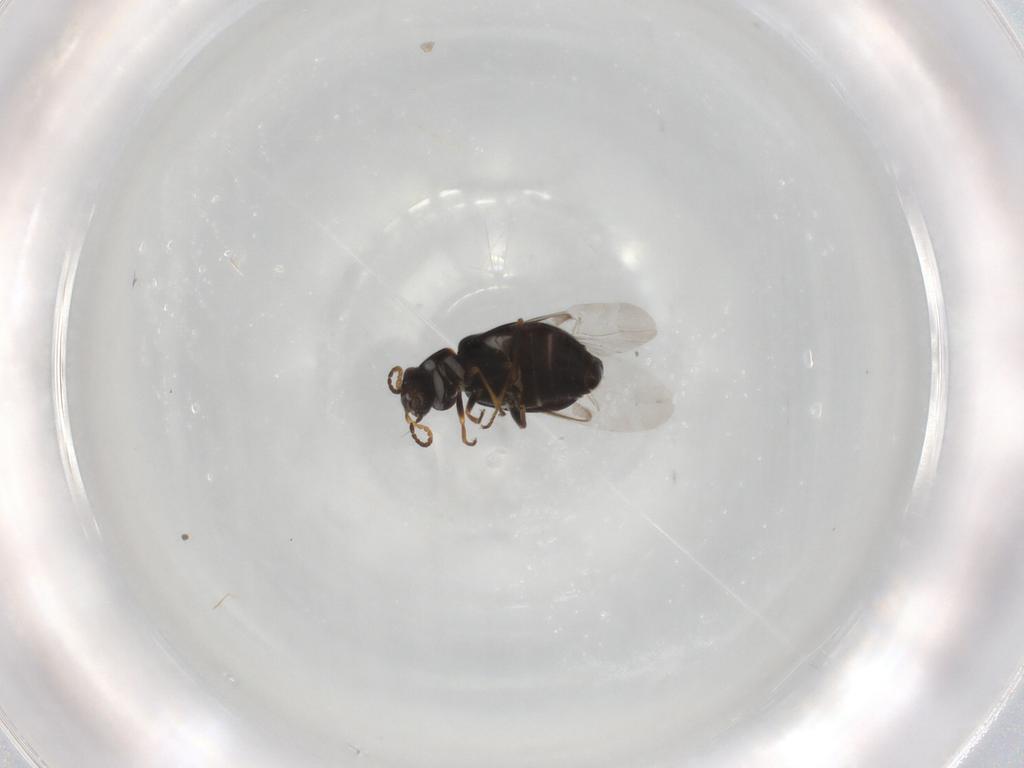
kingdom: Animalia
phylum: Arthropoda
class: Insecta
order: Coleoptera
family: Melyridae
